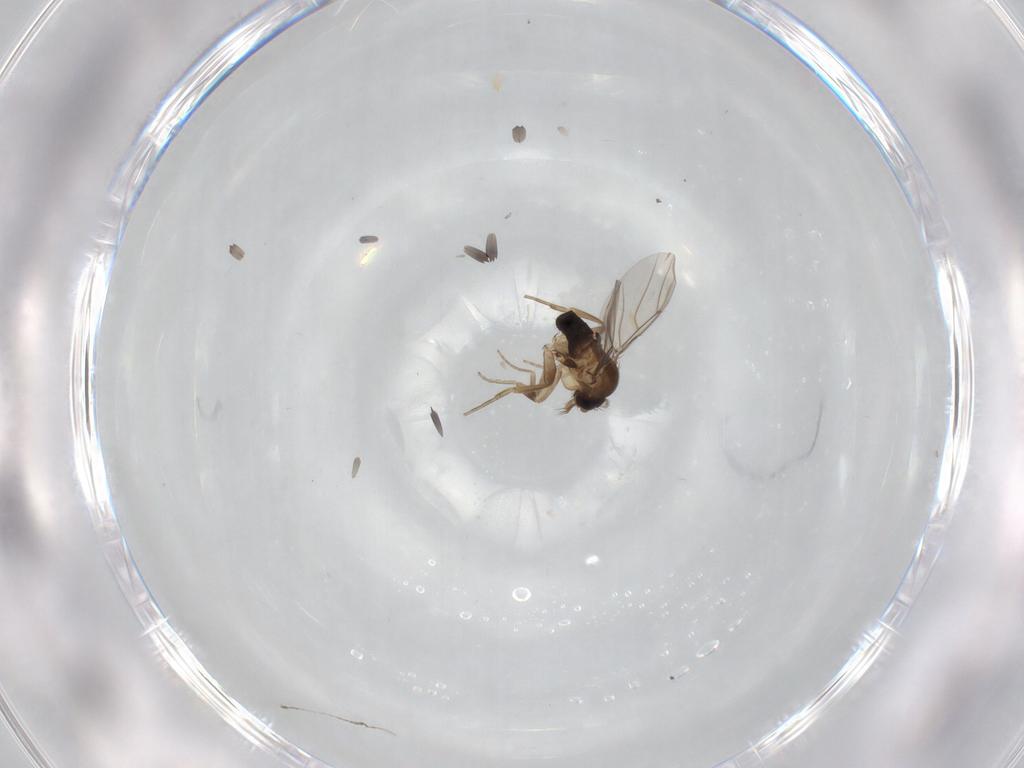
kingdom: Animalia
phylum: Arthropoda
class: Insecta
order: Diptera
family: Phoridae
